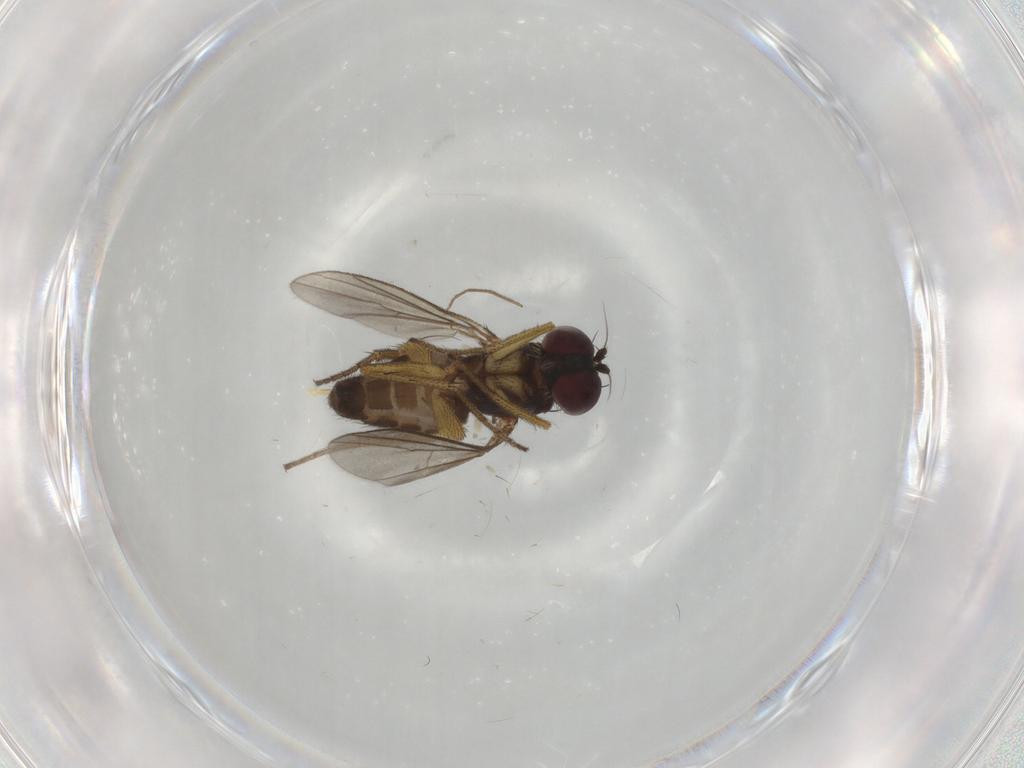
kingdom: Animalia
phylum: Arthropoda
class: Insecta
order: Diptera
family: Dolichopodidae
